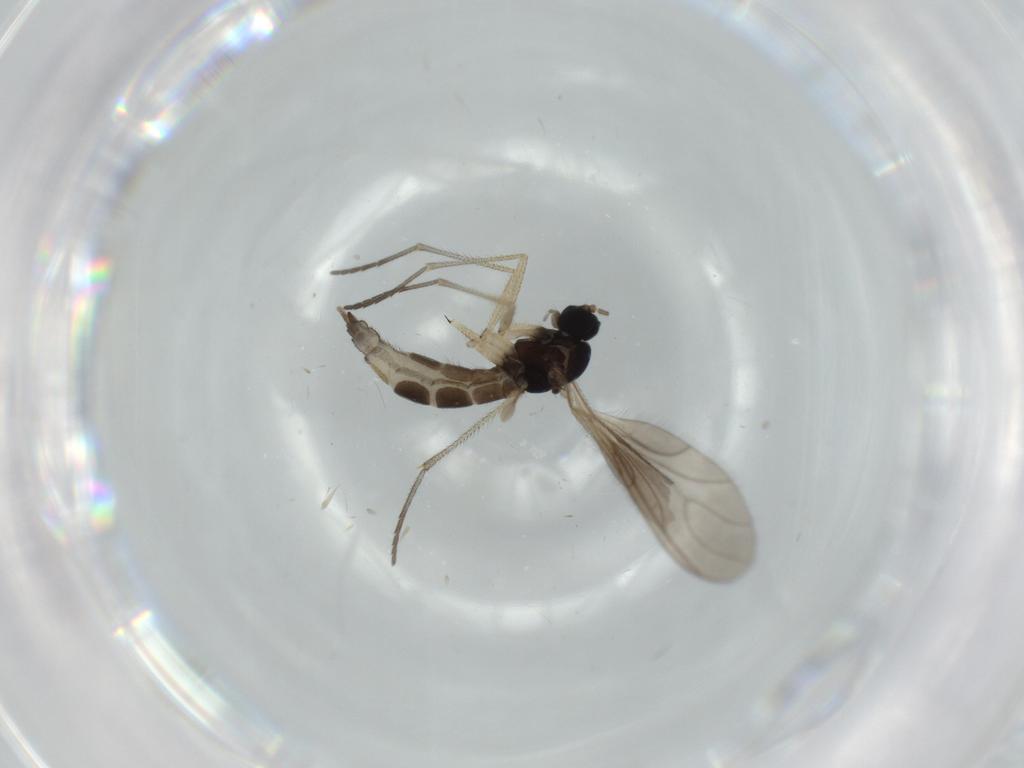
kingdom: Animalia
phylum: Arthropoda
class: Insecta
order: Diptera
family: Sciaridae
